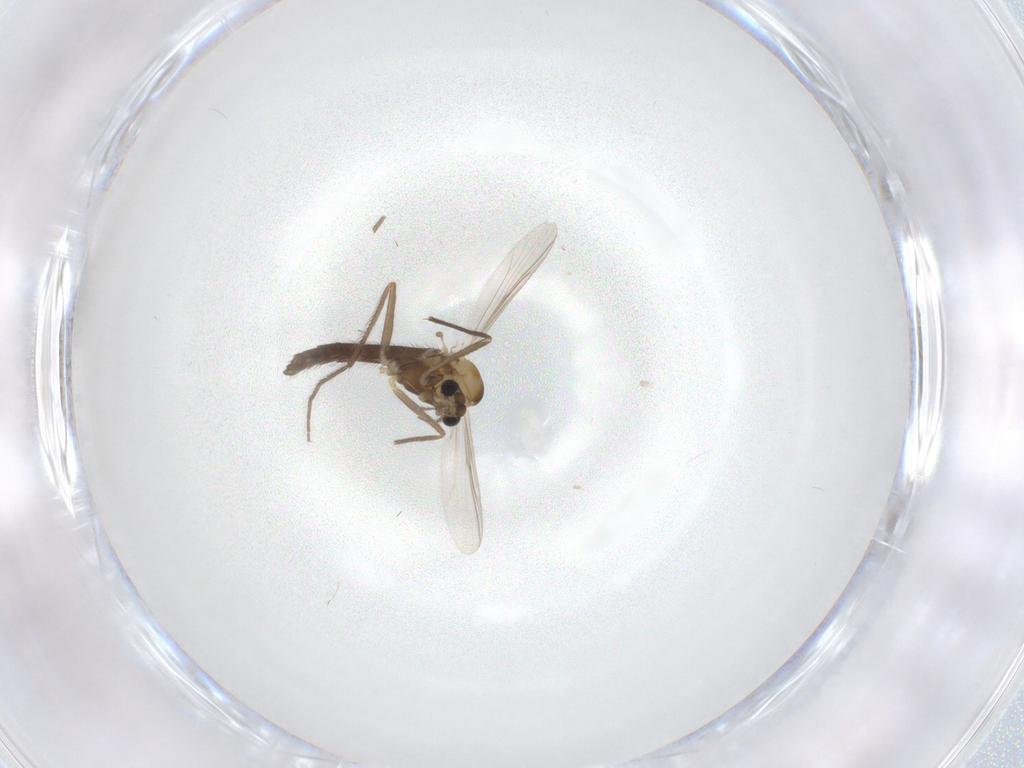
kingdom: Animalia
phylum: Arthropoda
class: Insecta
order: Diptera
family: Chironomidae
